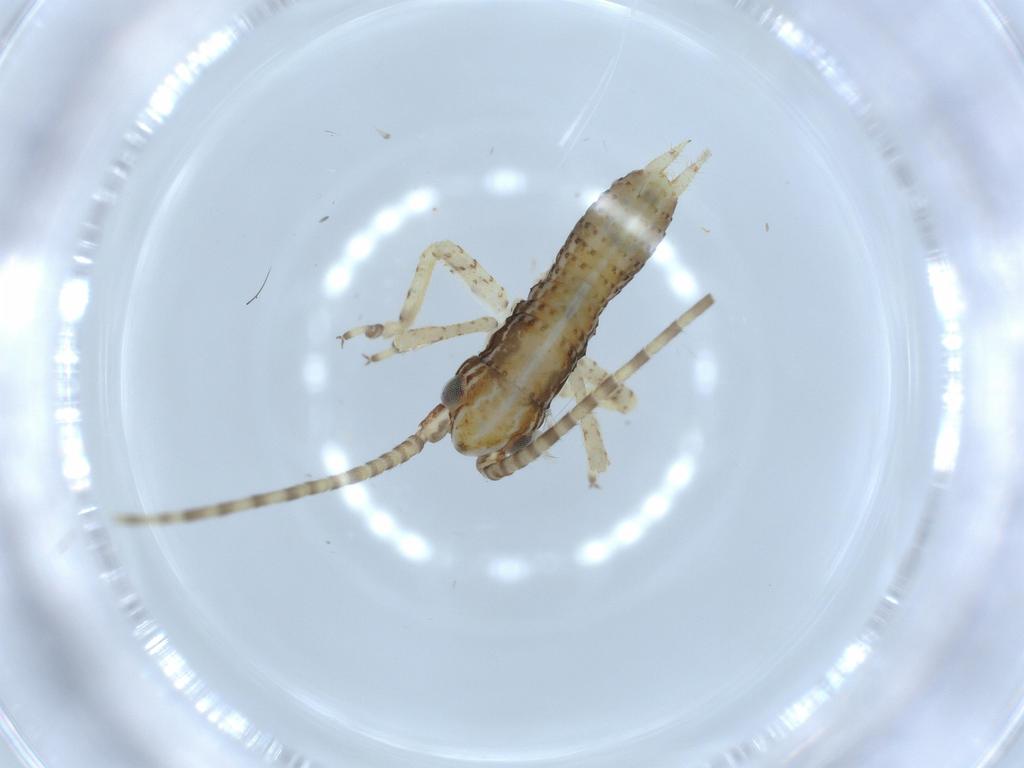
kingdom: Animalia
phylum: Arthropoda
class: Insecta
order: Orthoptera
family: Gryllidae
